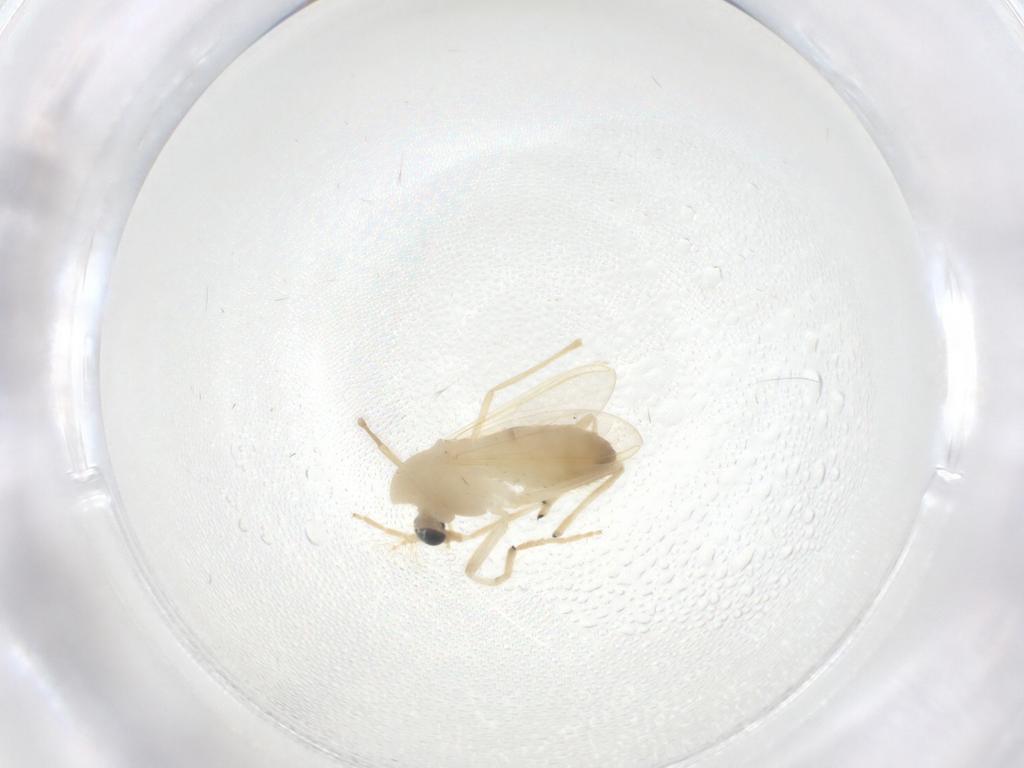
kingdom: Animalia
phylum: Arthropoda
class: Insecta
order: Diptera
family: Chironomidae
